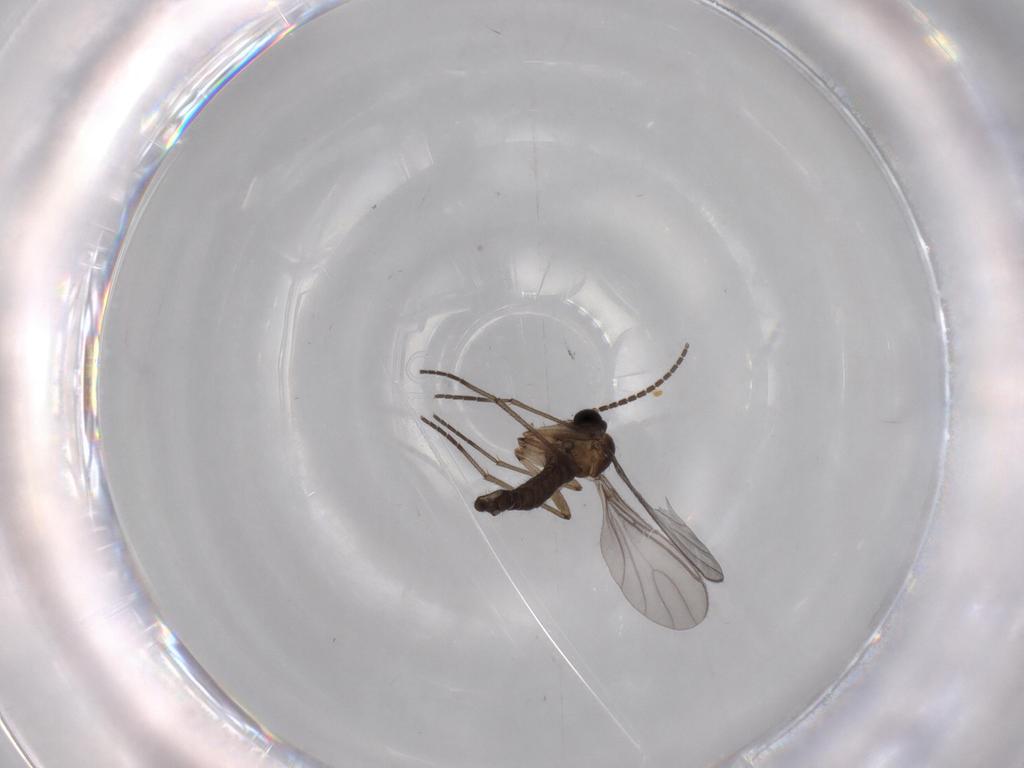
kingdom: Animalia
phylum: Arthropoda
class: Insecta
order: Diptera
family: Sciaridae
